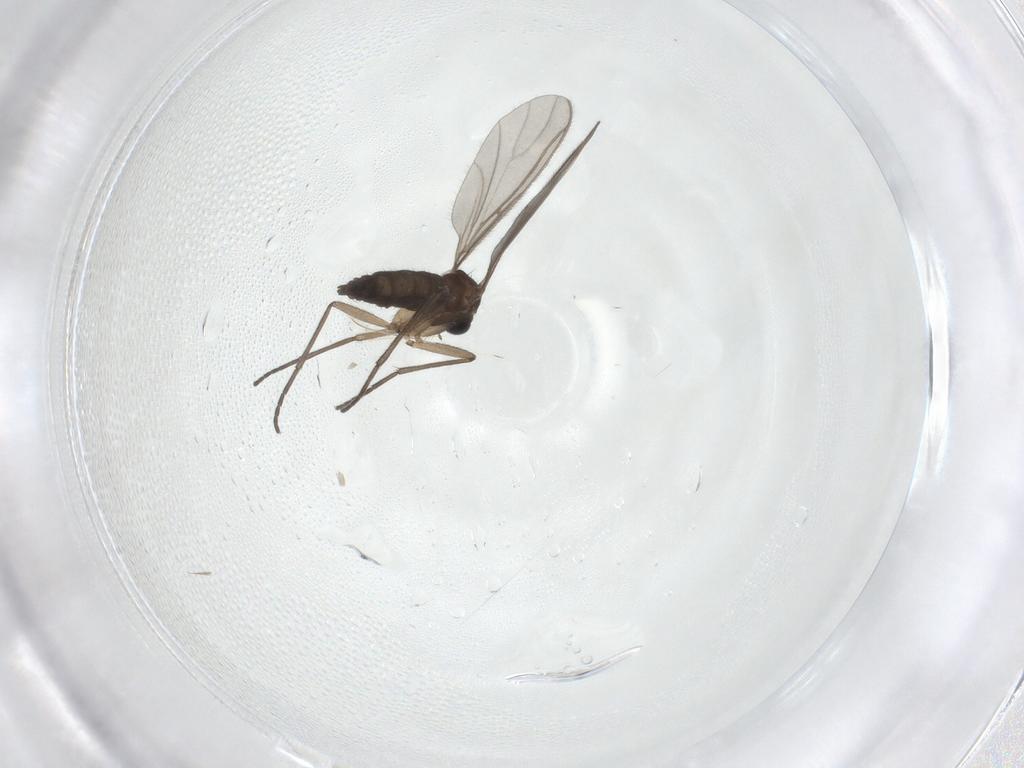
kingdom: Animalia
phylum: Arthropoda
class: Insecta
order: Diptera
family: Sciaridae
